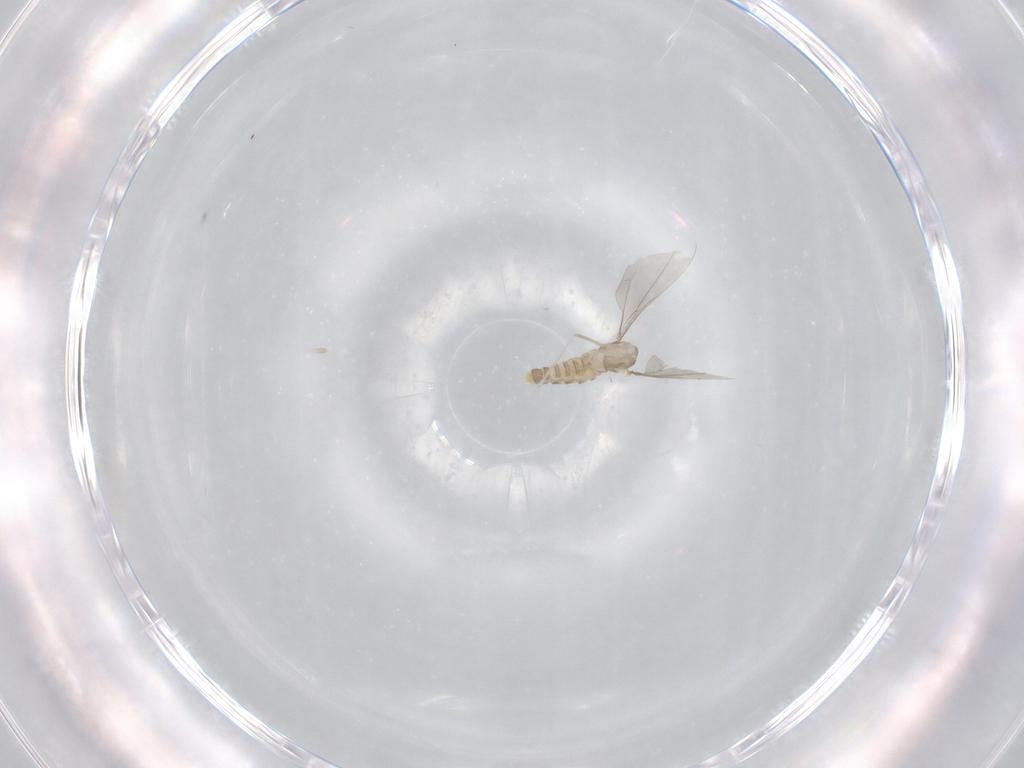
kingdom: Animalia
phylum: Arthropoda
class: Insecta
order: Diptera
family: Cecidomyiidae
